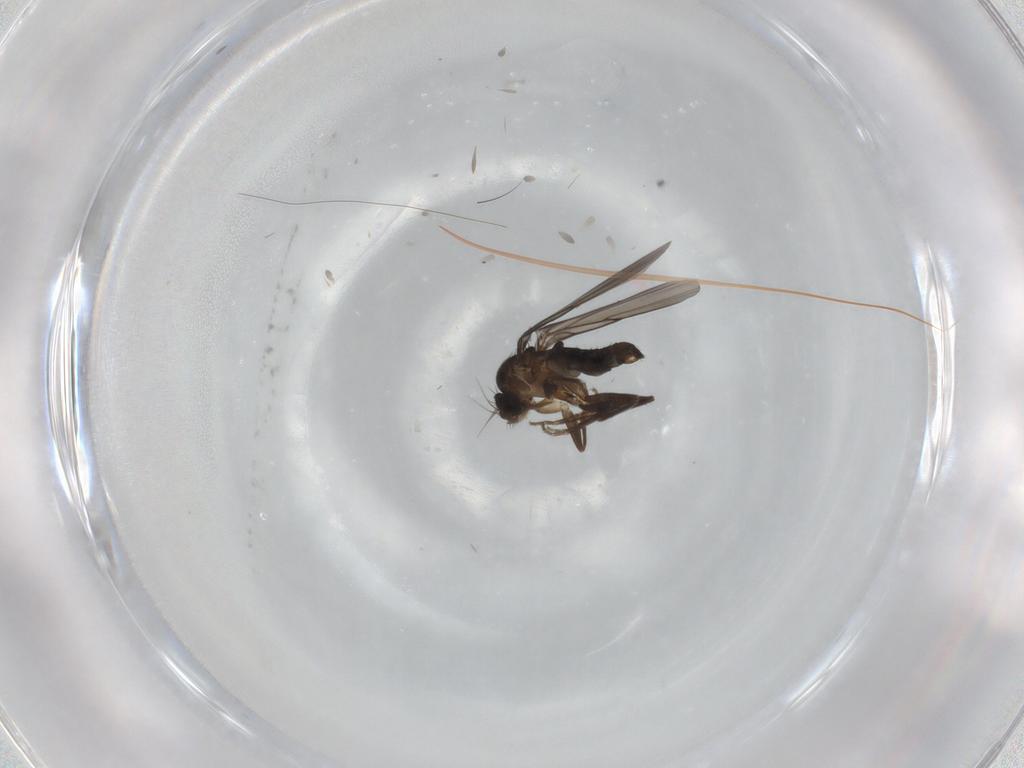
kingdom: Animalia
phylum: Arthropoda
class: Insecta
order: Diptera
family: Phoridae
